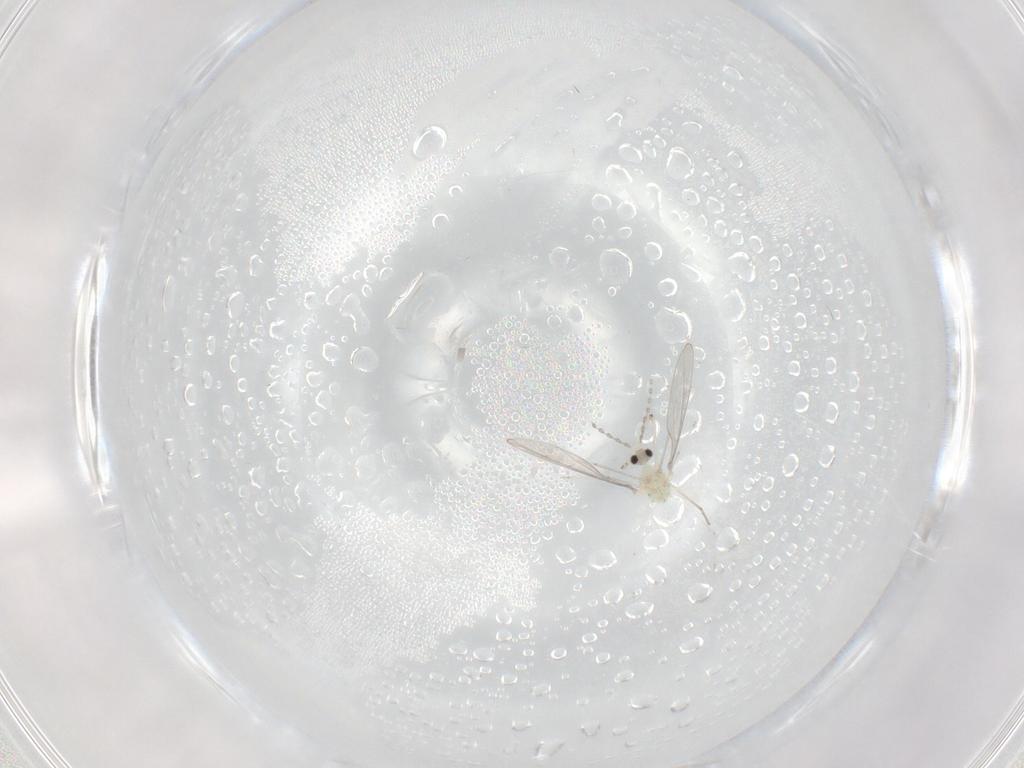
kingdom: Animalia
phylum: Arthropoda
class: Insecta
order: Diptera
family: Cecidomyiidae
